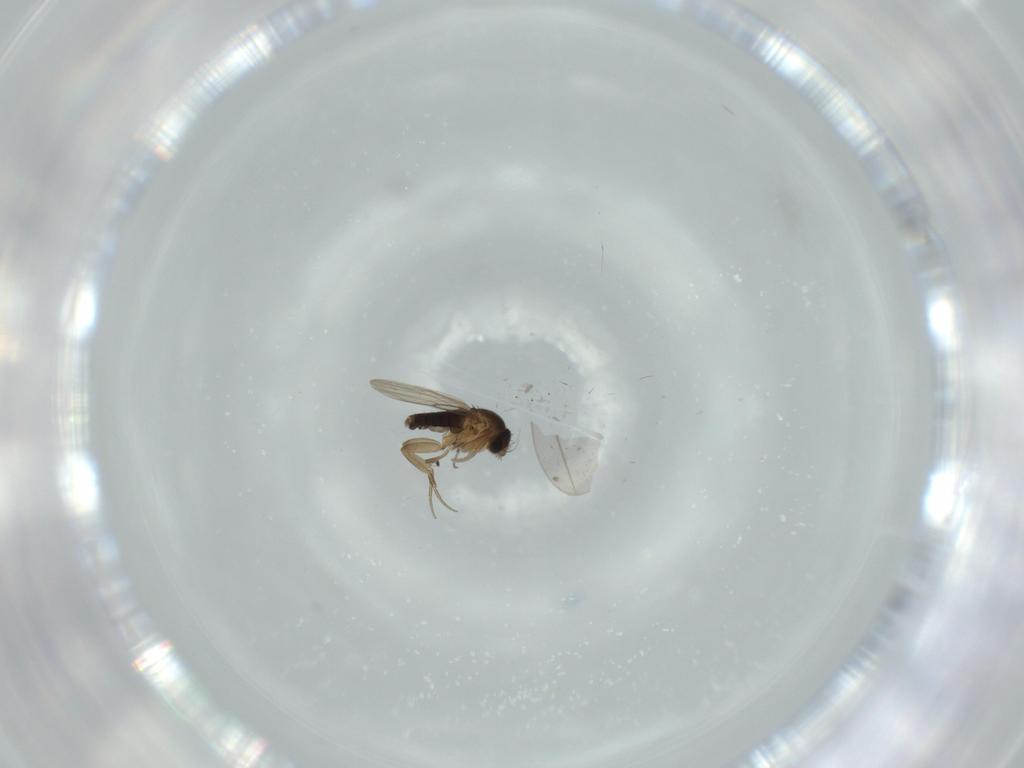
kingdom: Animalia
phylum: Arthropoda
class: Insecta
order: Diptera
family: Phoridae
